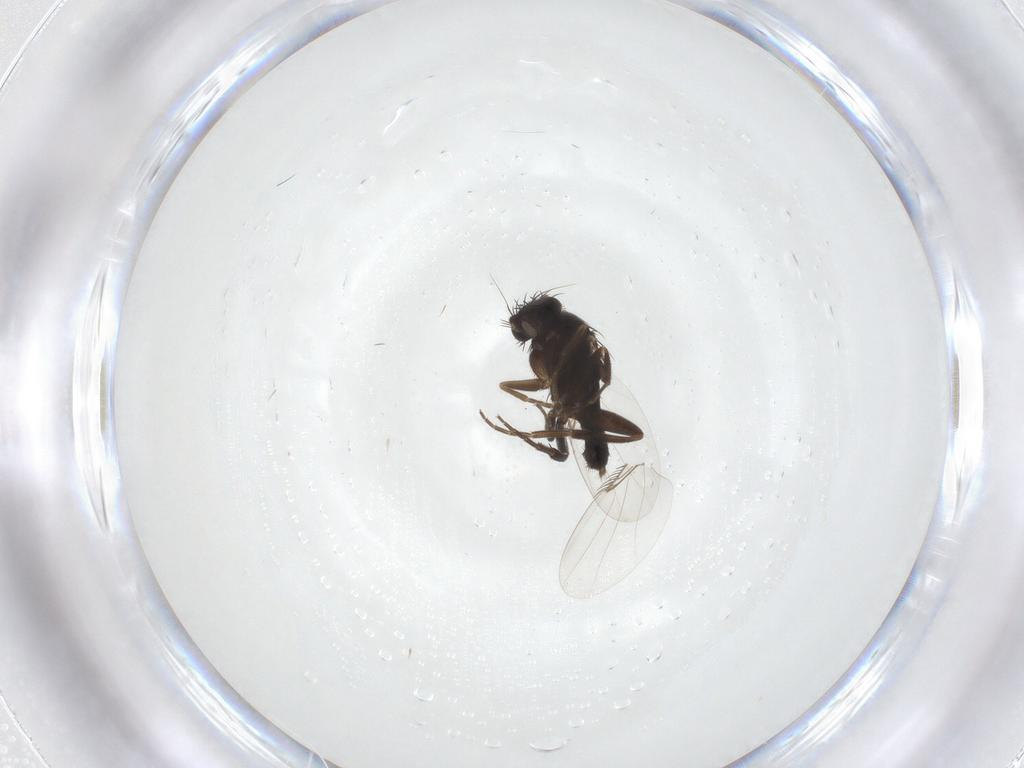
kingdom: Animalia
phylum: Arthropoda
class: Insecta
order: Diptera
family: Phoridae
